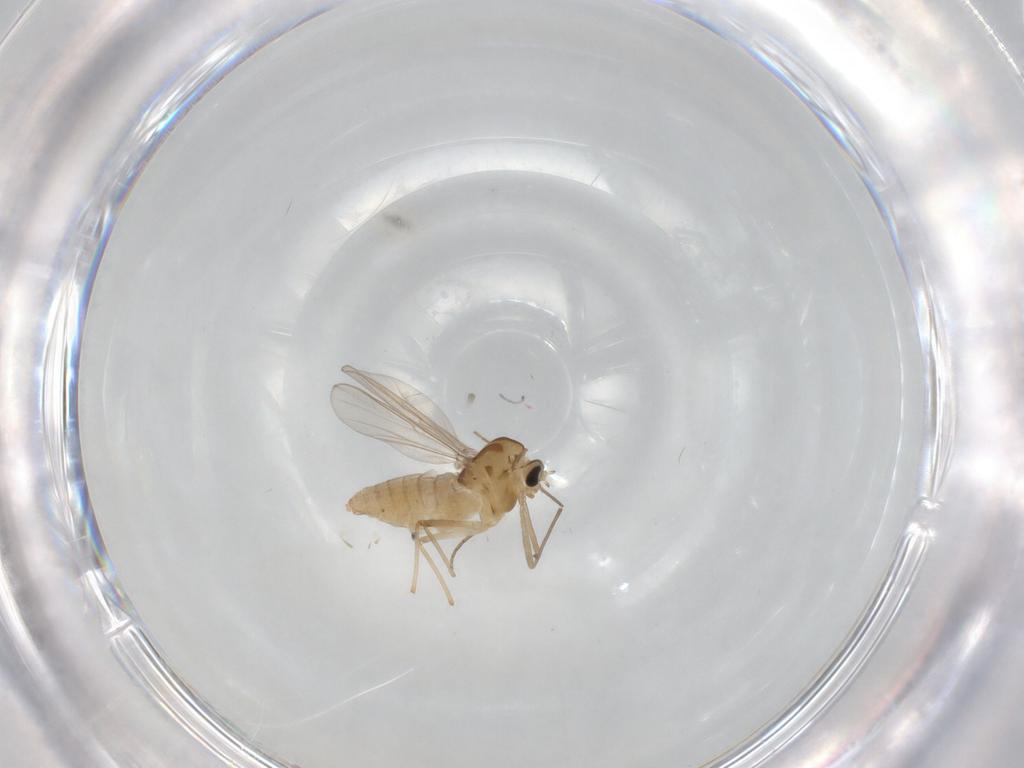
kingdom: Animalia
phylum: Arthropoda
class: Insecta
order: Diptera
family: Chironomidae
